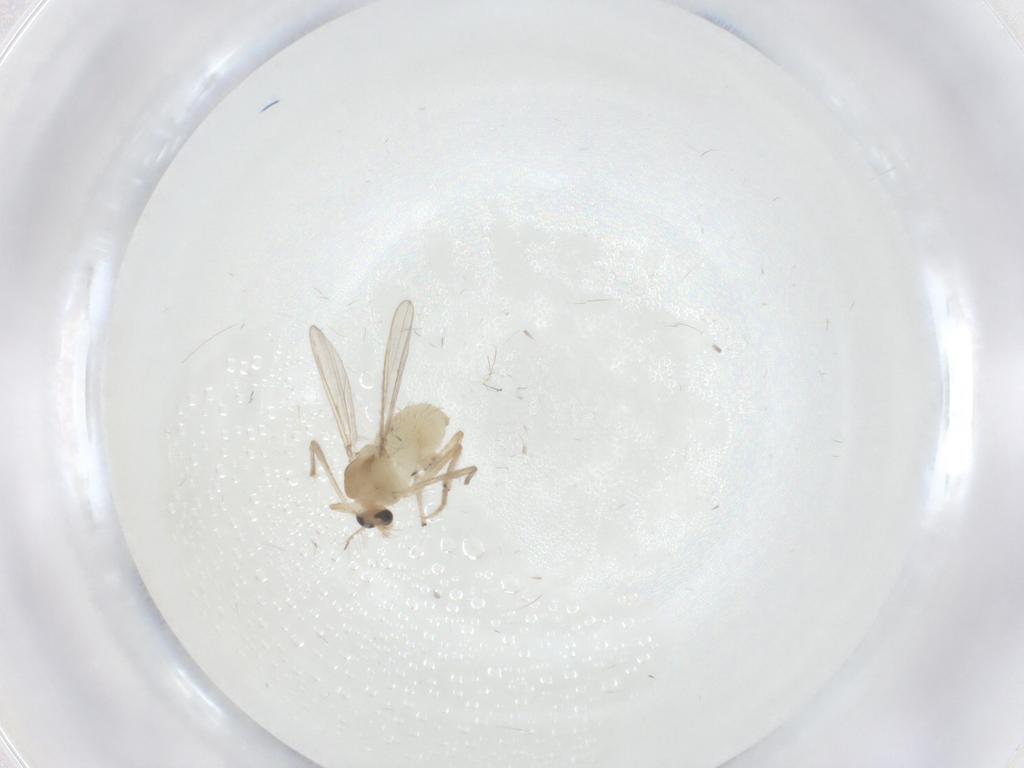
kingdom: Animalia
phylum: Arthropoda
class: Insecta
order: Diptera
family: Chironomidae
